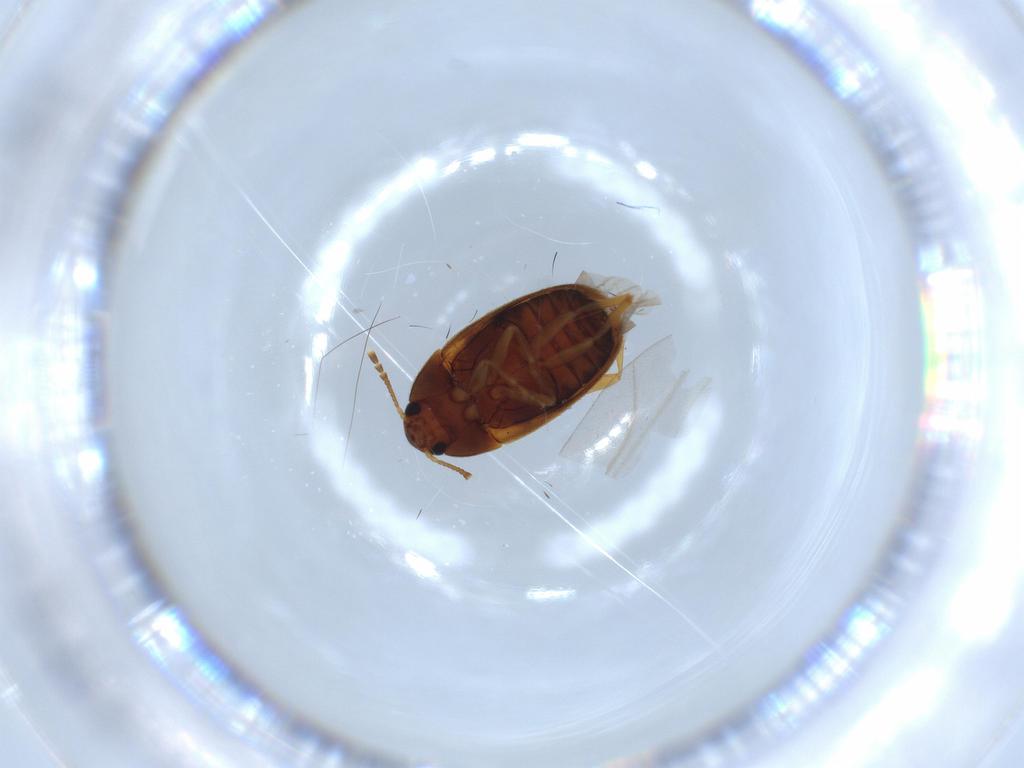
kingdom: Animalia
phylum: Arthropoda
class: Insecta
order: Coleoptera
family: Mycetophagidae
